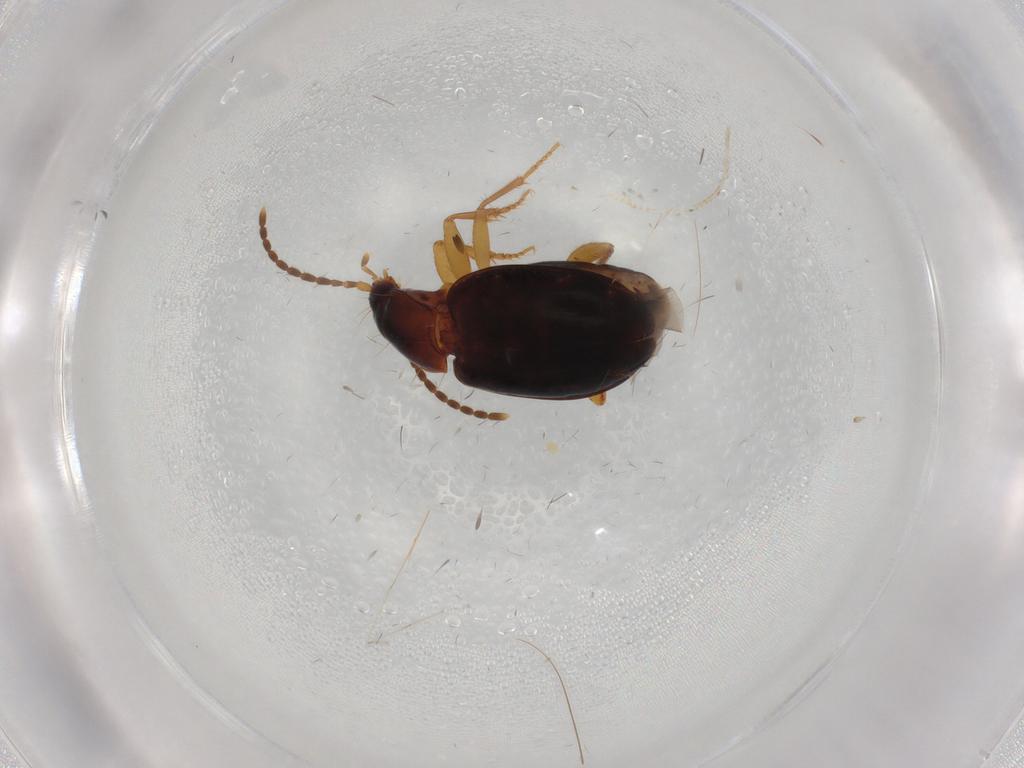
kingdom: Animalia
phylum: Arthropoda
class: Insecta
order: Coleoptera
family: Carabidae
